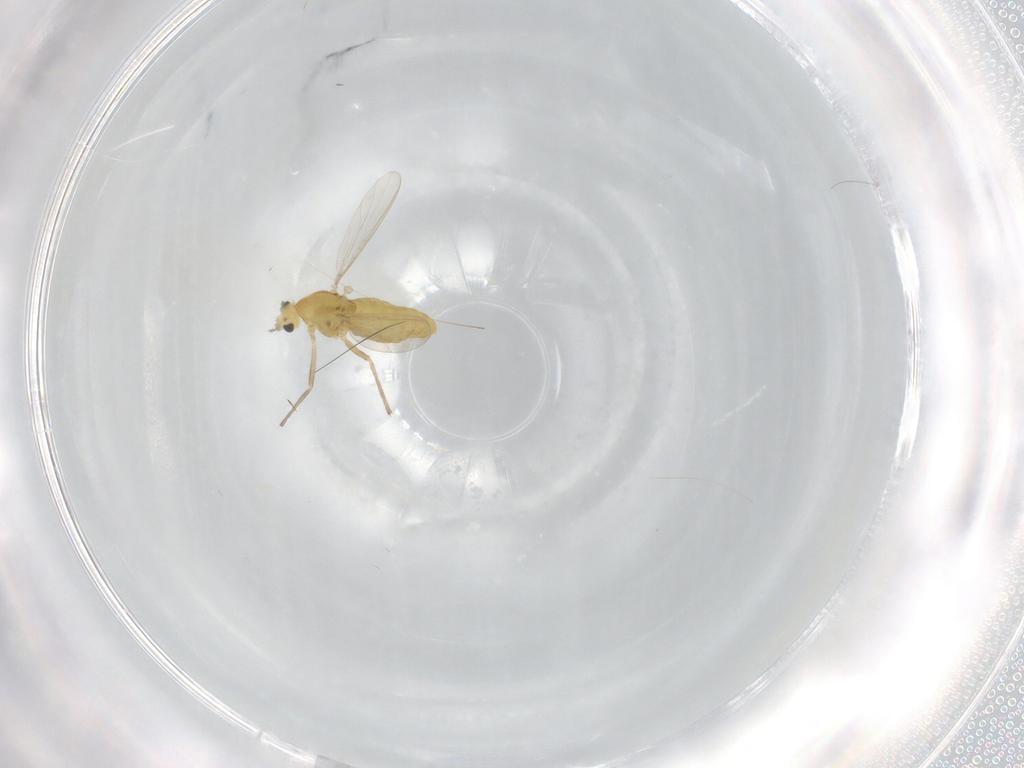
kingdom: Animalia
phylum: Arthropoda
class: Insecta
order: Diptera
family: Chironomidae
